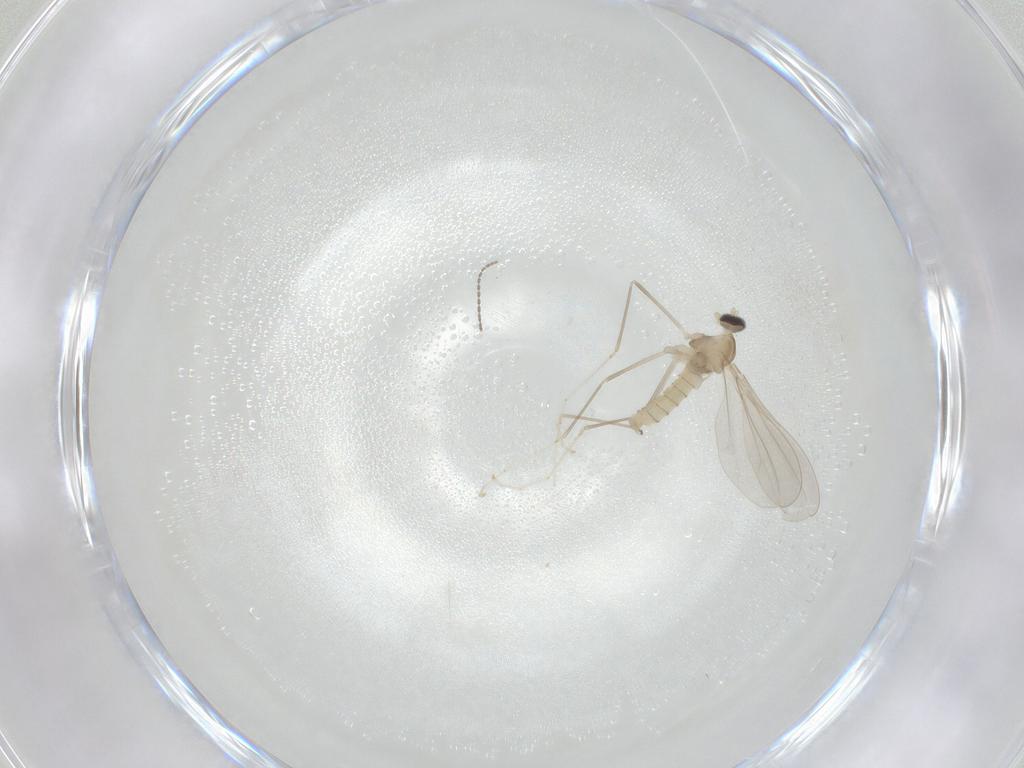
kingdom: Animalia
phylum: Arthropoda
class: Insecta
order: Diptera
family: Cecidomyiidae
